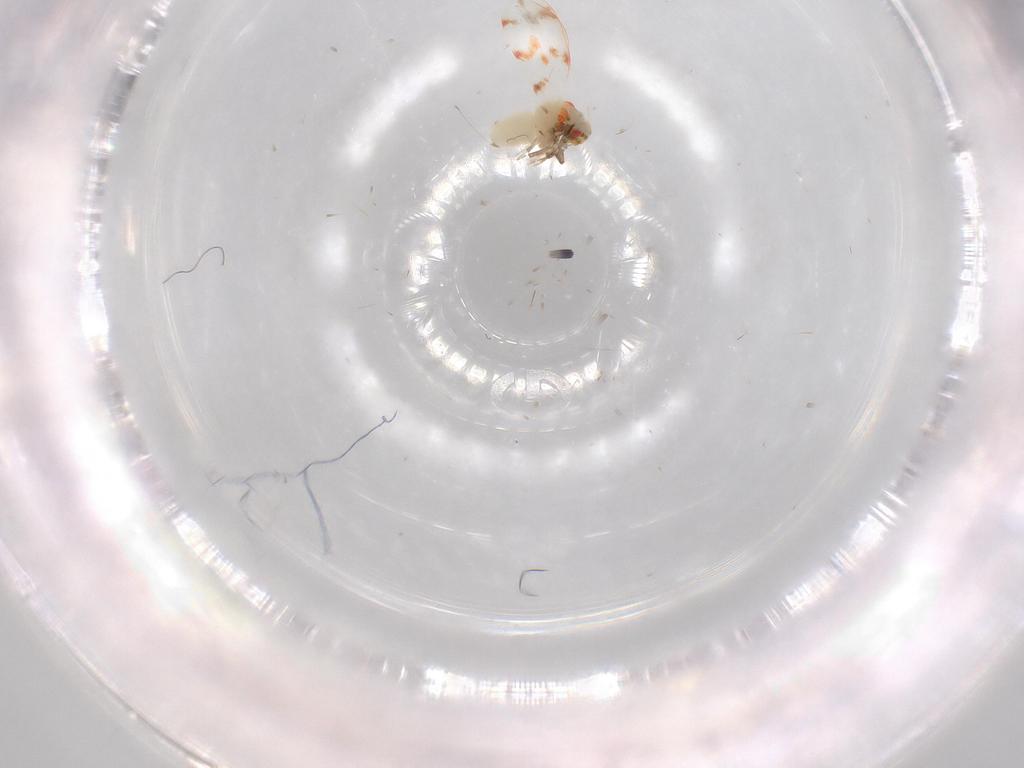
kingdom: Animalia
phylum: Arthropoda
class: Insecta
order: Hemiptera
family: Aleyrodidae
